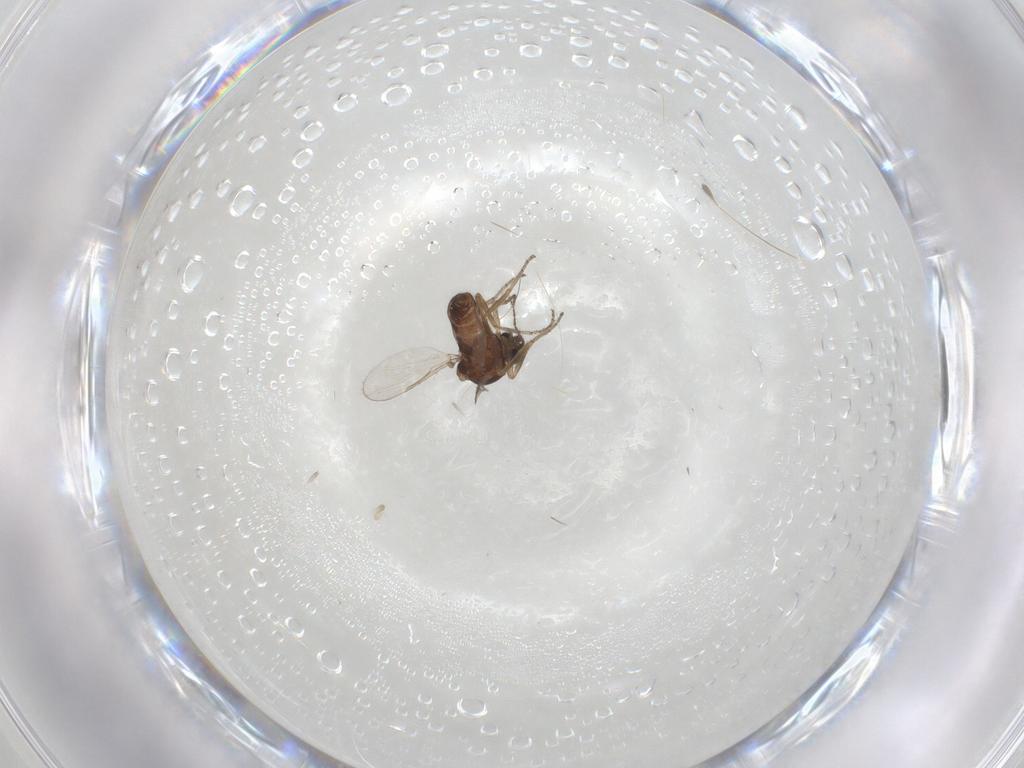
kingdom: Animalia
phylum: Arthropoda
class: Insecta
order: Diptera
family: Ceratopogonidae
